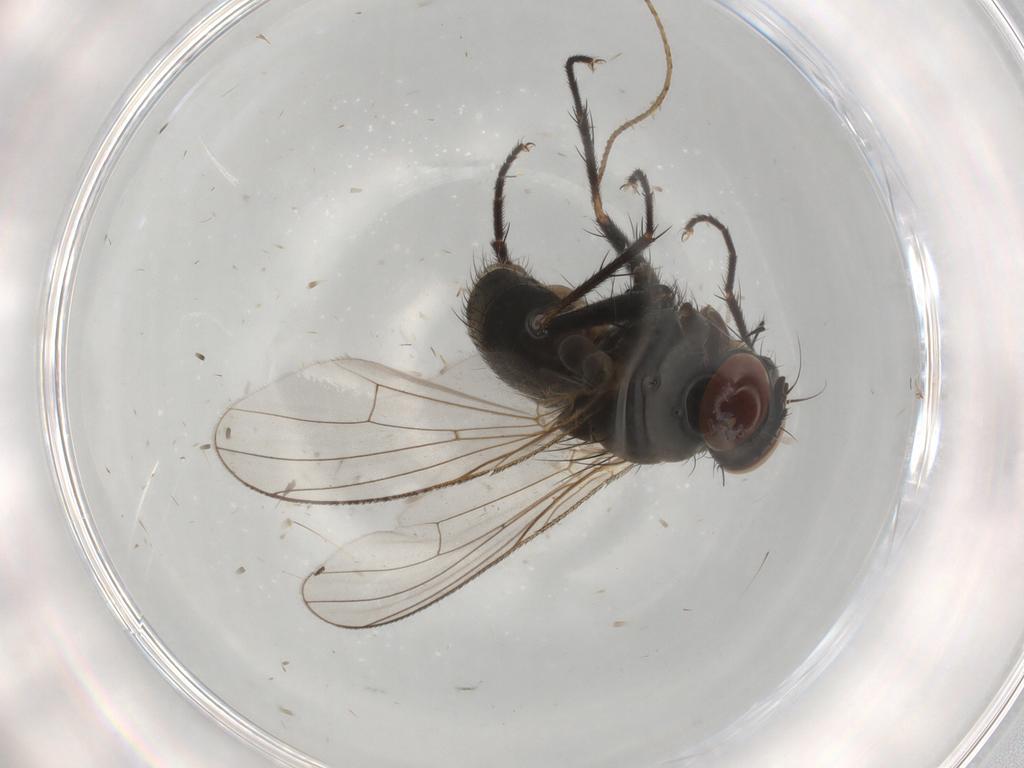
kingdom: Animalia
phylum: Arthropoda
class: Insecta
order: Diptera
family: Muscidae
